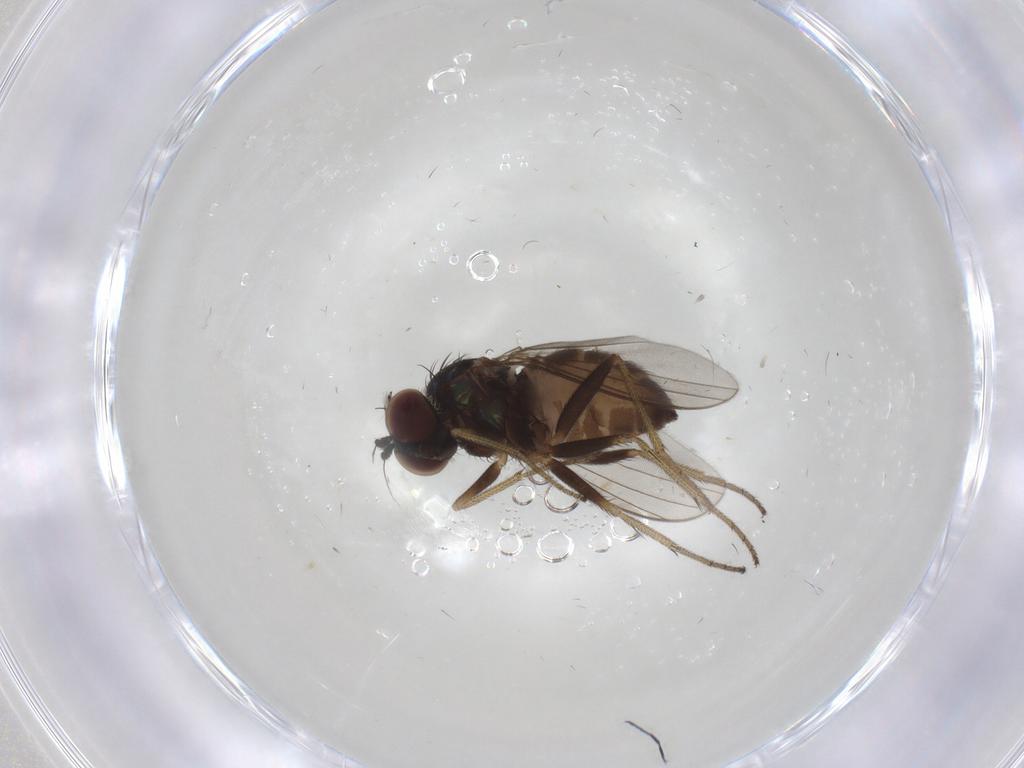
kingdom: Animalia
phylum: Arthropoda
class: Insecta
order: Diptera
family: Dolichopodidae
